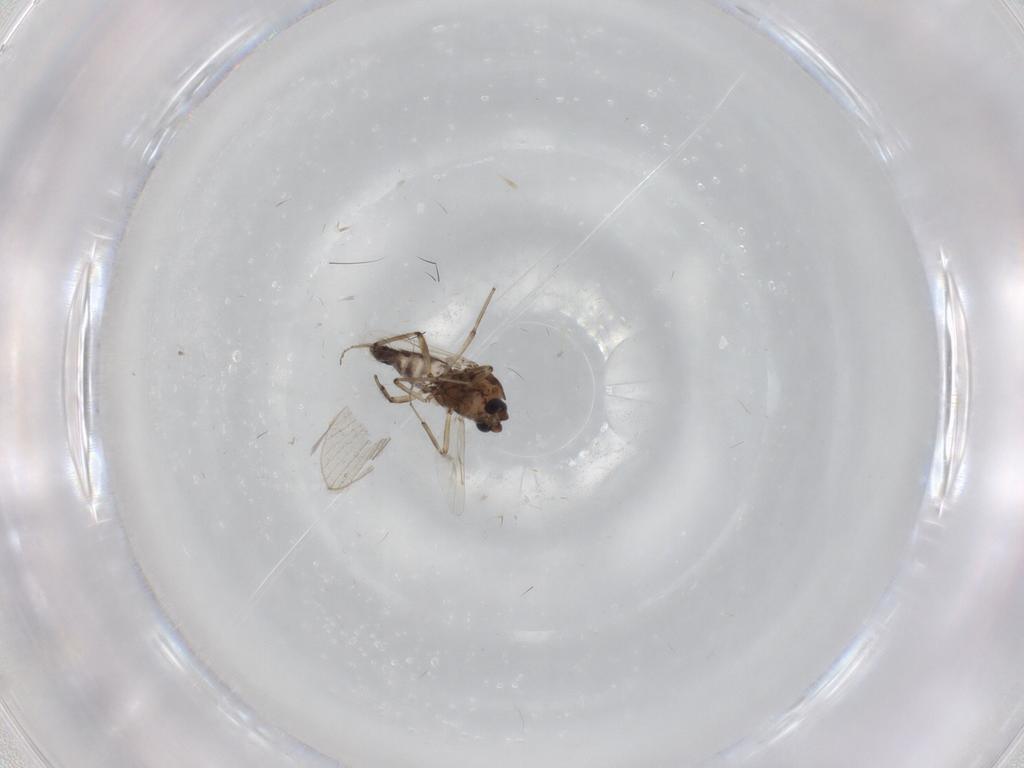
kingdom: Animalia
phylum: Arthropoda
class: Insecta
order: Diptera
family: Ceratopogonidae
